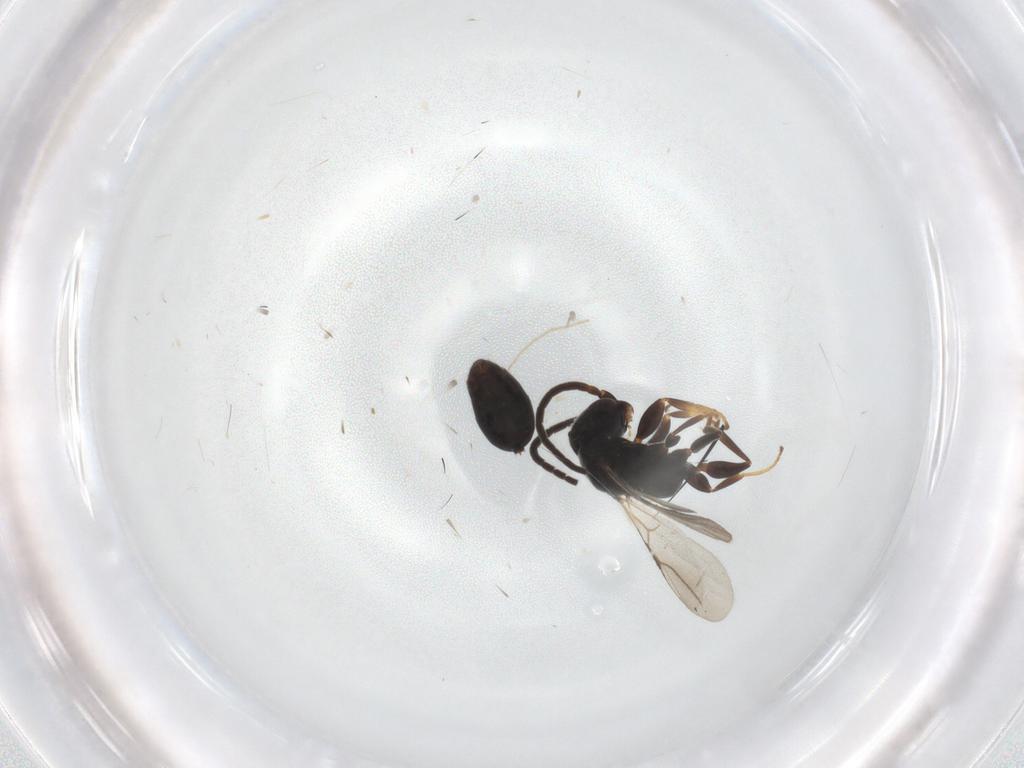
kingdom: Animalia
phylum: Arthropoda
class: Insecta
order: Hymenoptera
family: Bethylidae
